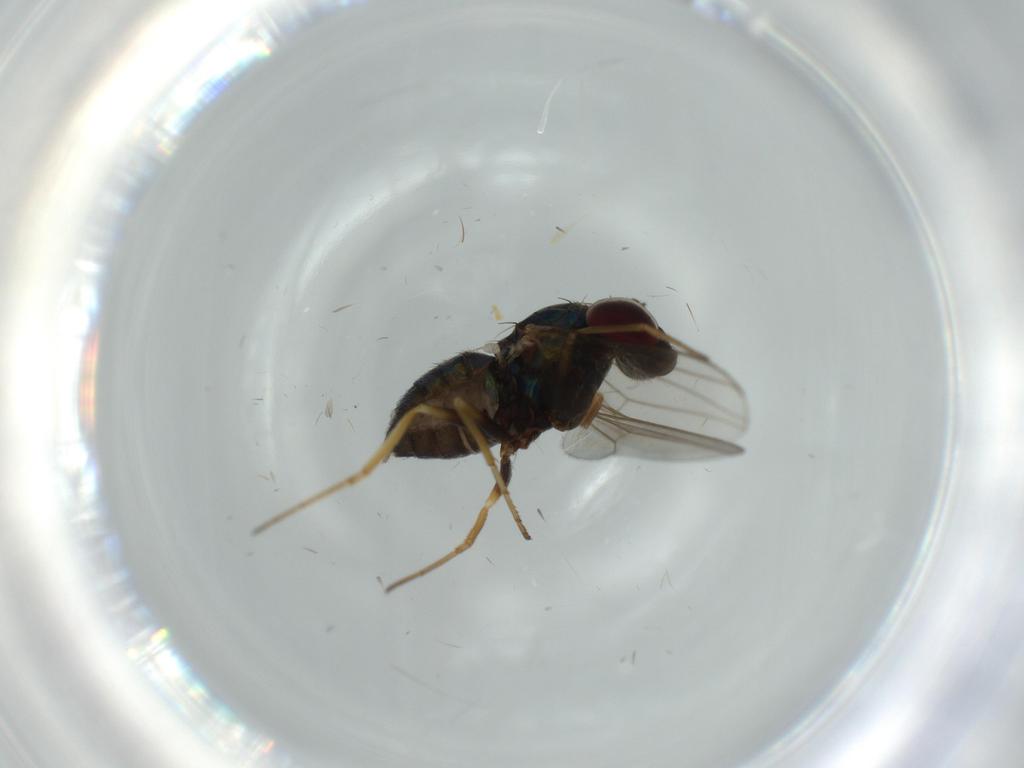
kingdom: Animalia
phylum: Arthropoda
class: Insecta
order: Diptera
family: Dolichopodidae
